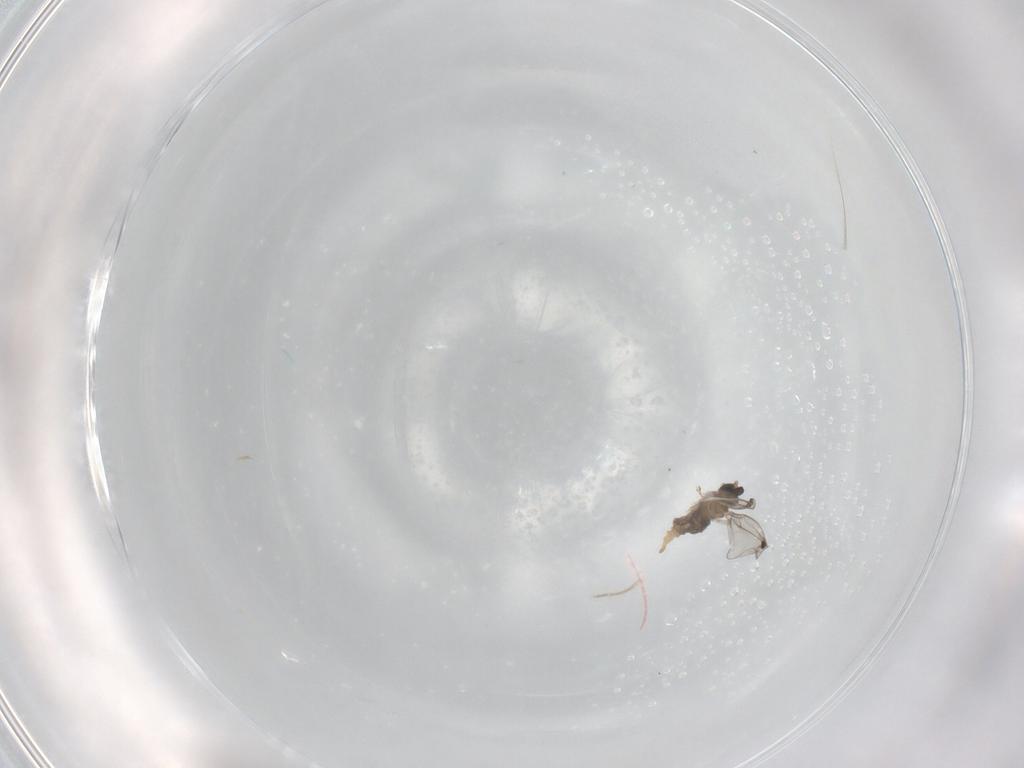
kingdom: Animalia
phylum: Arthropoda
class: Insecta
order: Diptera
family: Cecidomyiidae
